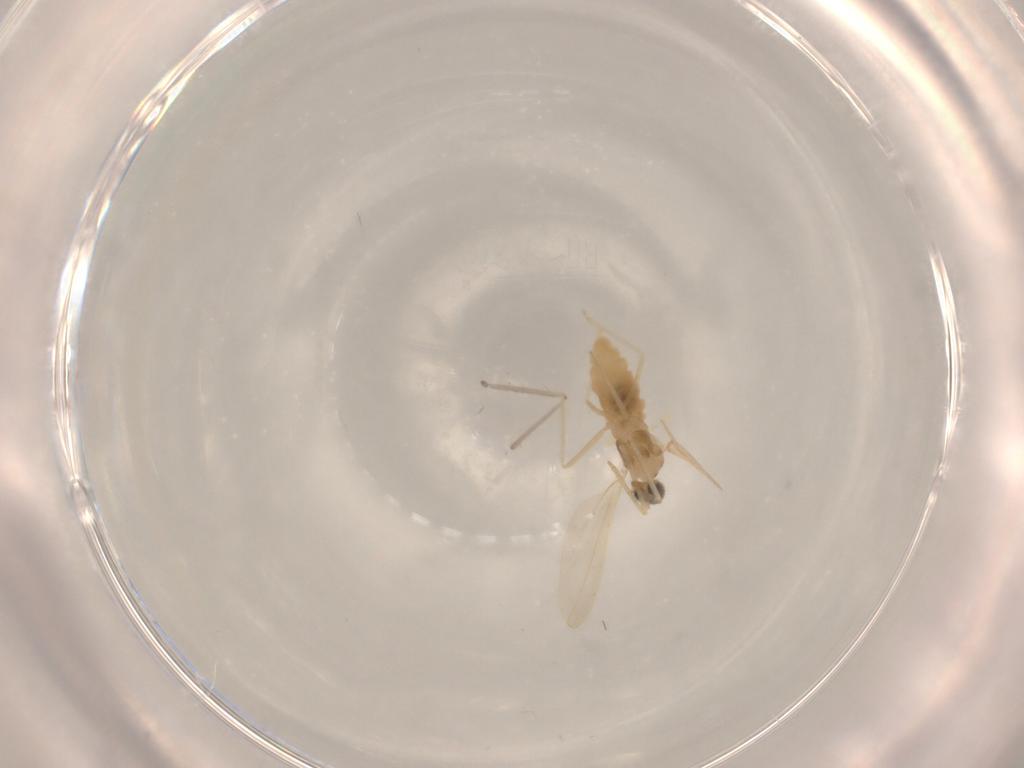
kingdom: Animalia
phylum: Arthropoda
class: Insecta
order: Diptera
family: Cecidomyiidae
